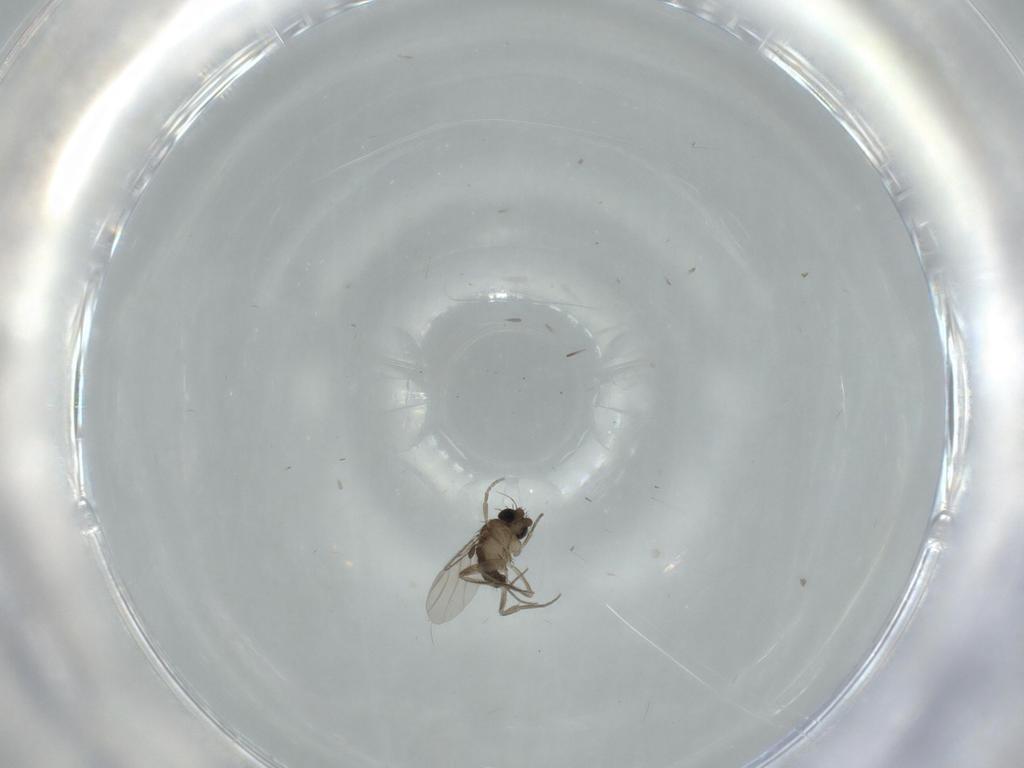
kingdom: Animalia
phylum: Arthropoda
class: Insecta
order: Diptera
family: Phoridae
